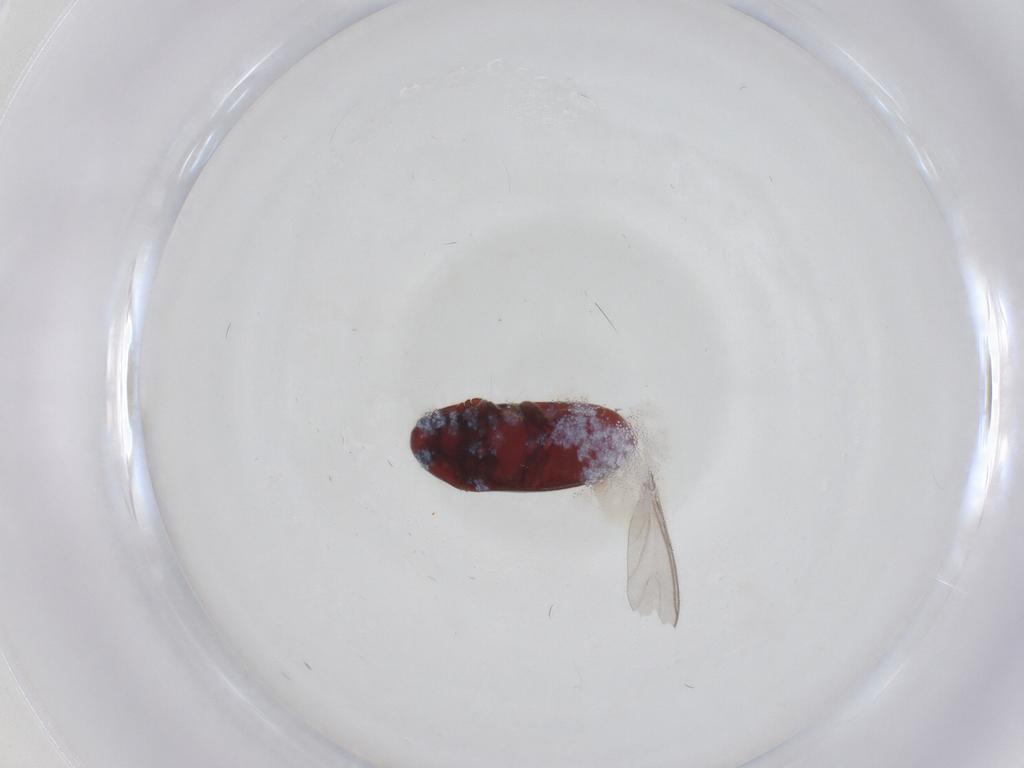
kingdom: Animalia
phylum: Arthropoda
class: Insecta
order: Coleoptera
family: Throscidae
